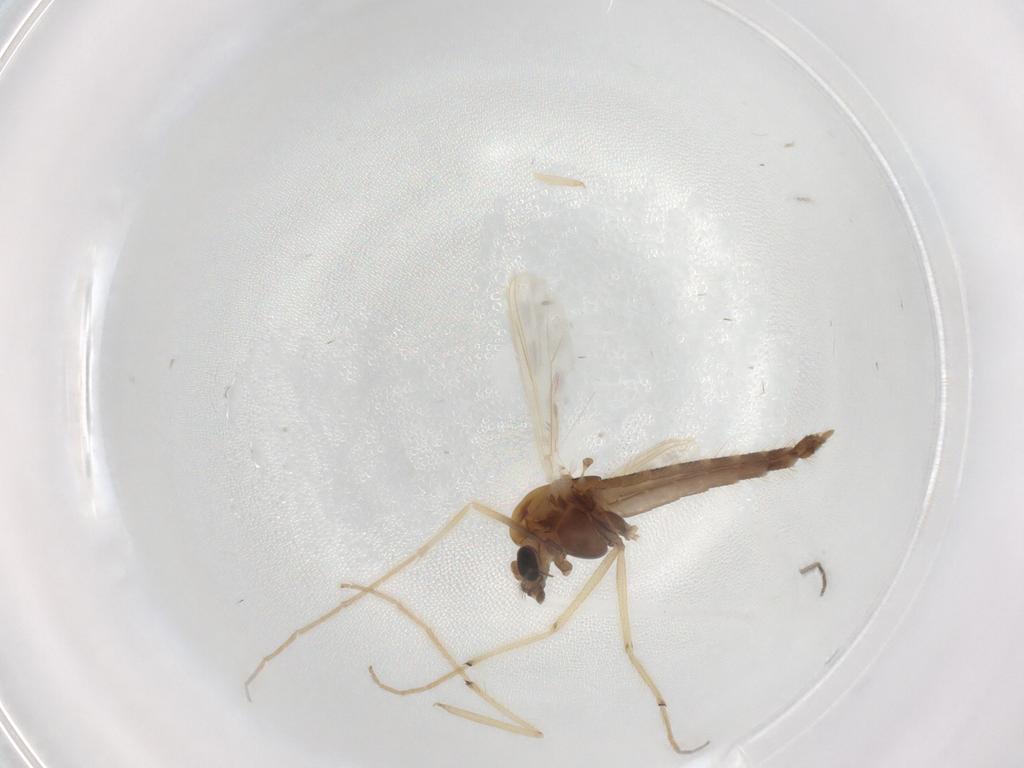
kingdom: Animalia
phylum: Arthropoda
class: Insecta
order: Diptera
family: Chironomidae
